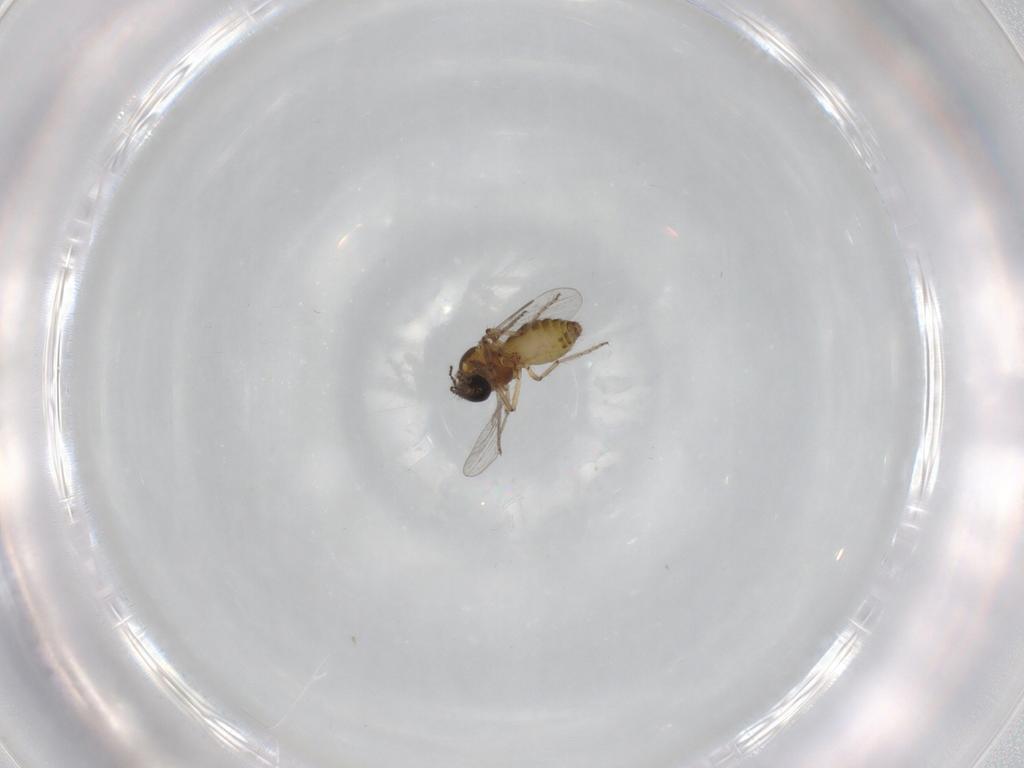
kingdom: Animalia
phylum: Arthropoda
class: Insecta
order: Diptera
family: Ceratopogonidae
